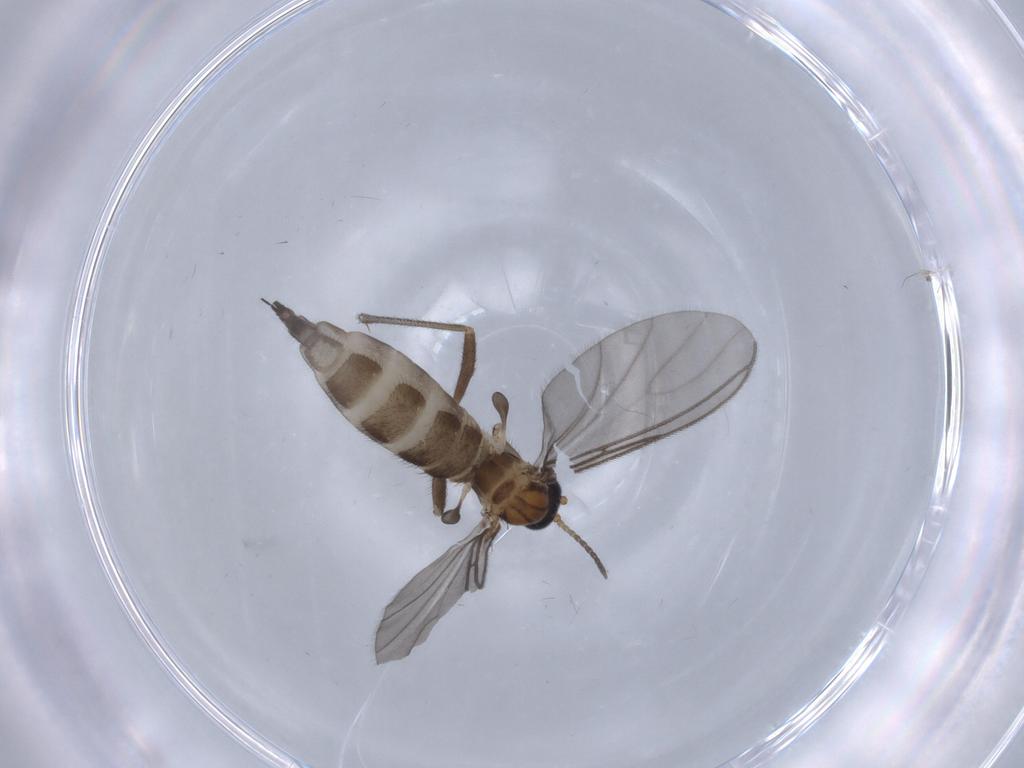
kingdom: Animalia
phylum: Arthropoda
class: Insecta
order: Diptera
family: Sciaridae
